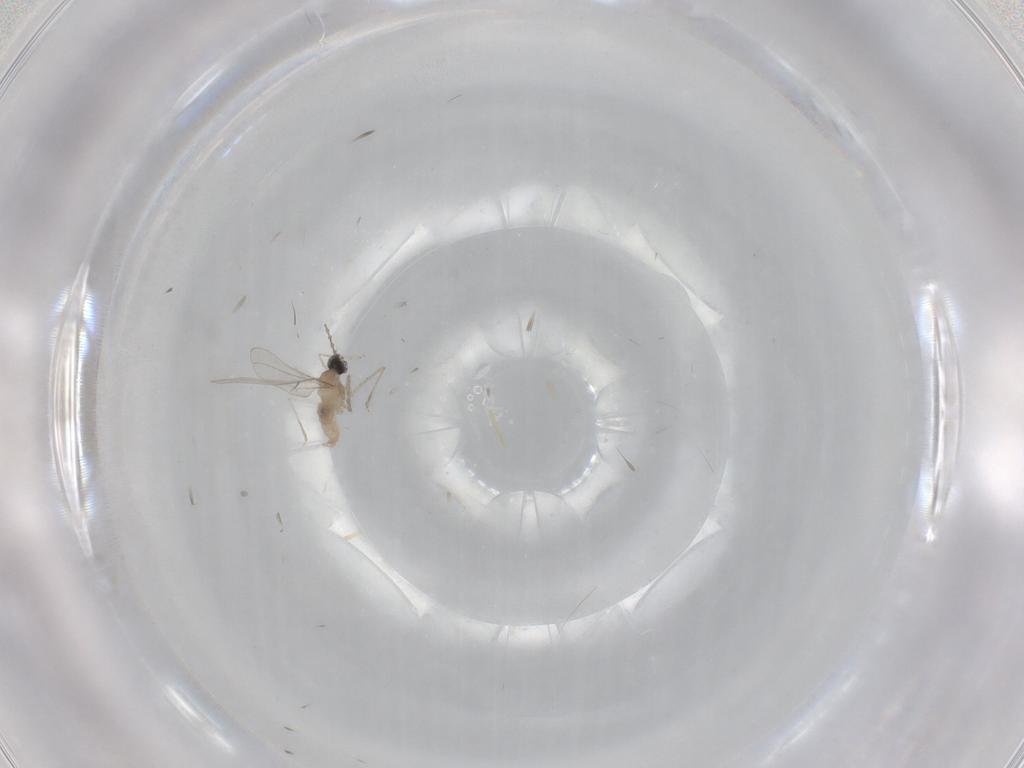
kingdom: Animalia
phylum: Arthropoda
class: Insecta
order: Diptera
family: Cecidomyiidae
